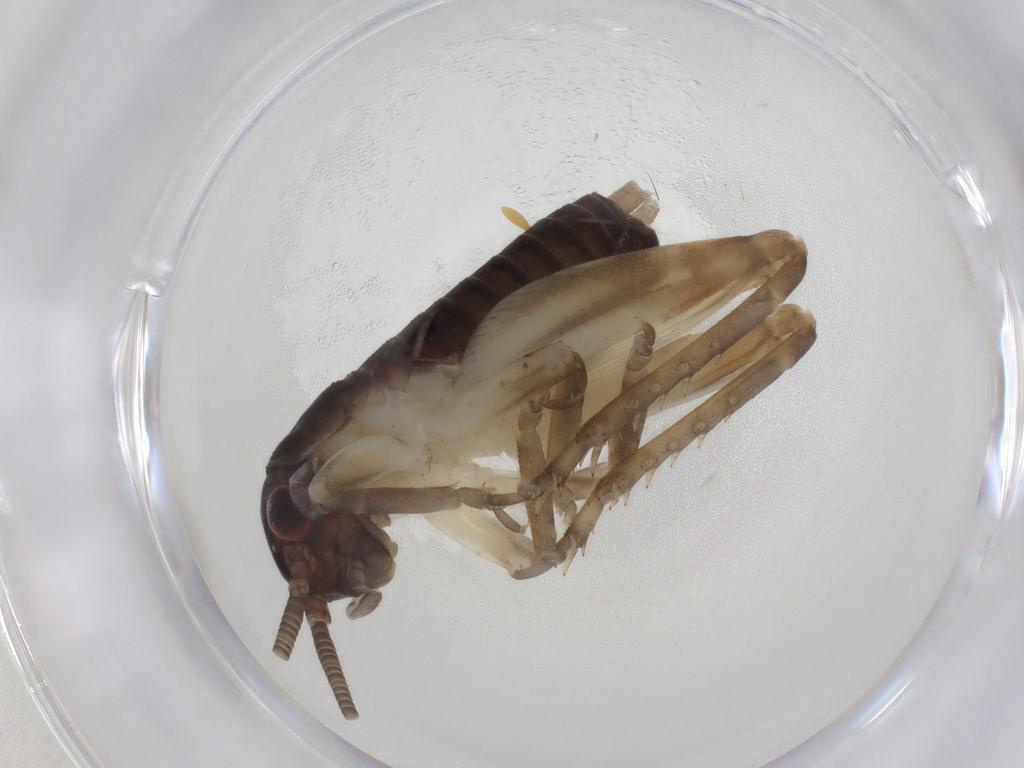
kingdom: Animalia
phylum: Arthropoda
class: Insecta
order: Orthoptera
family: Gryllidae
